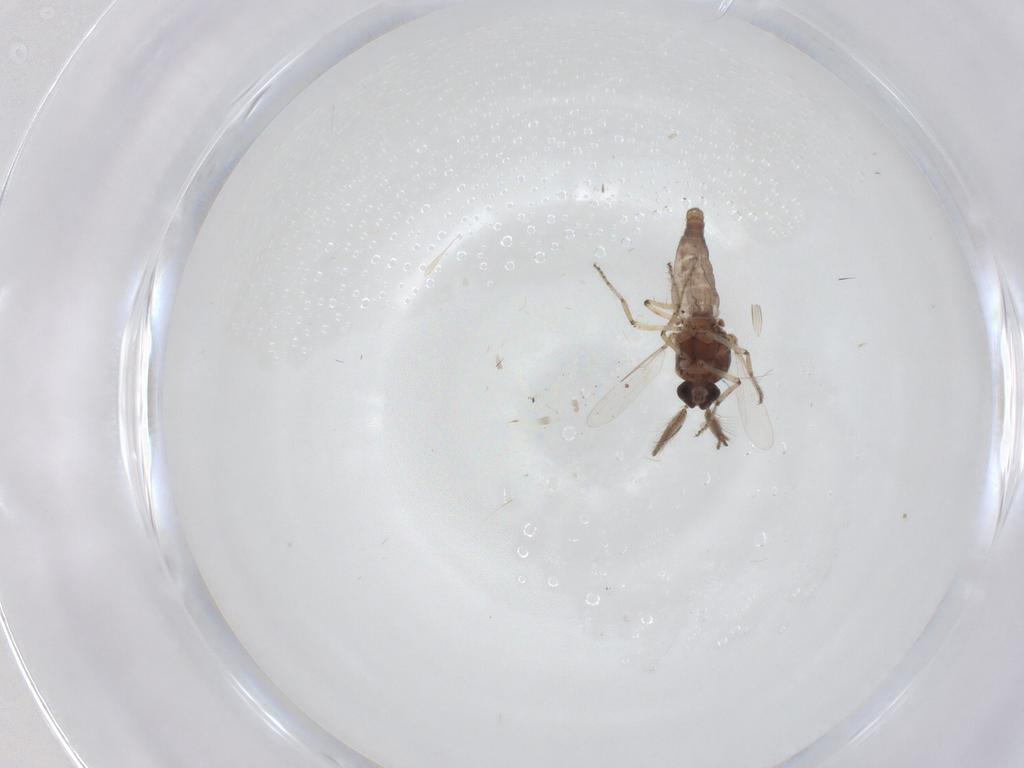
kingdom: Animalia
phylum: Arthropoda
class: Insecta
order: Diptera
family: Ceratopogonidae
